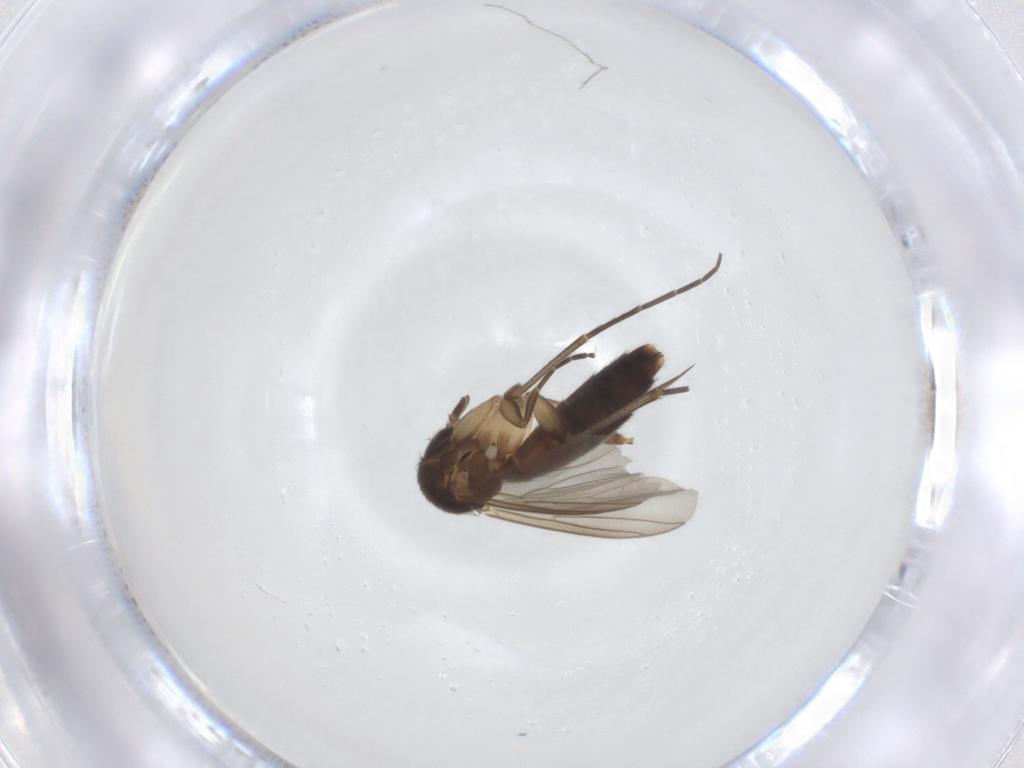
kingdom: Animalia
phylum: Arthropoda
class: Insecta
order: Diptera
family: Mycetophilidae
